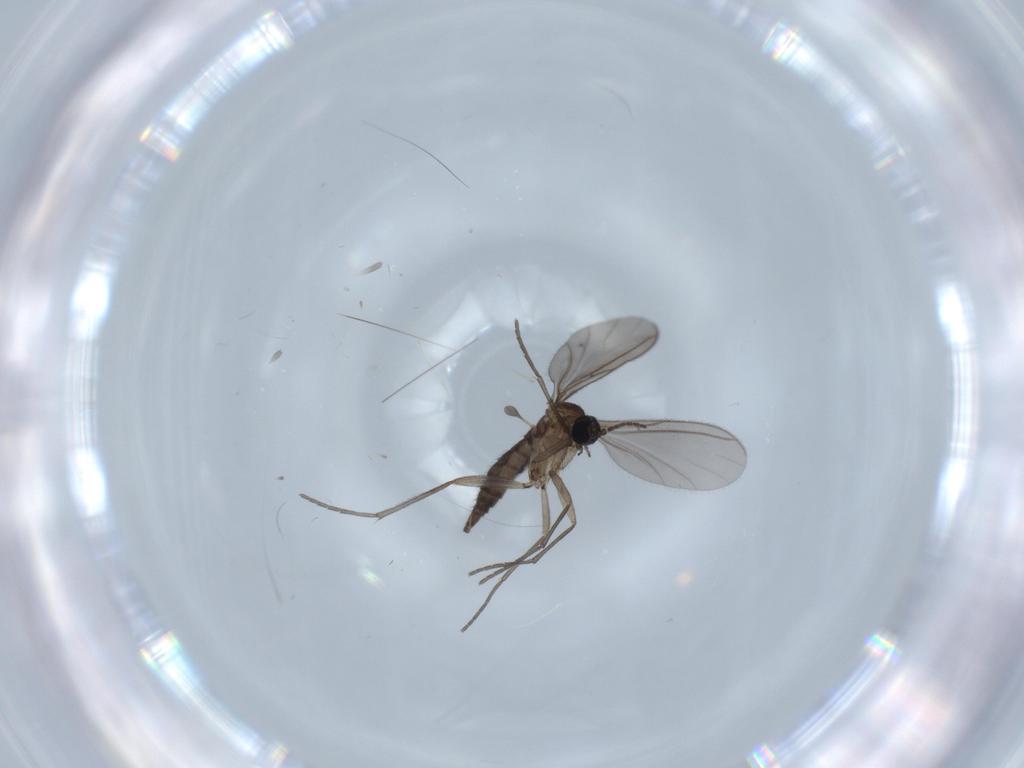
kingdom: Animalia
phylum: Arthropoda
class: Insecta
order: Diptera
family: Sciaridae
